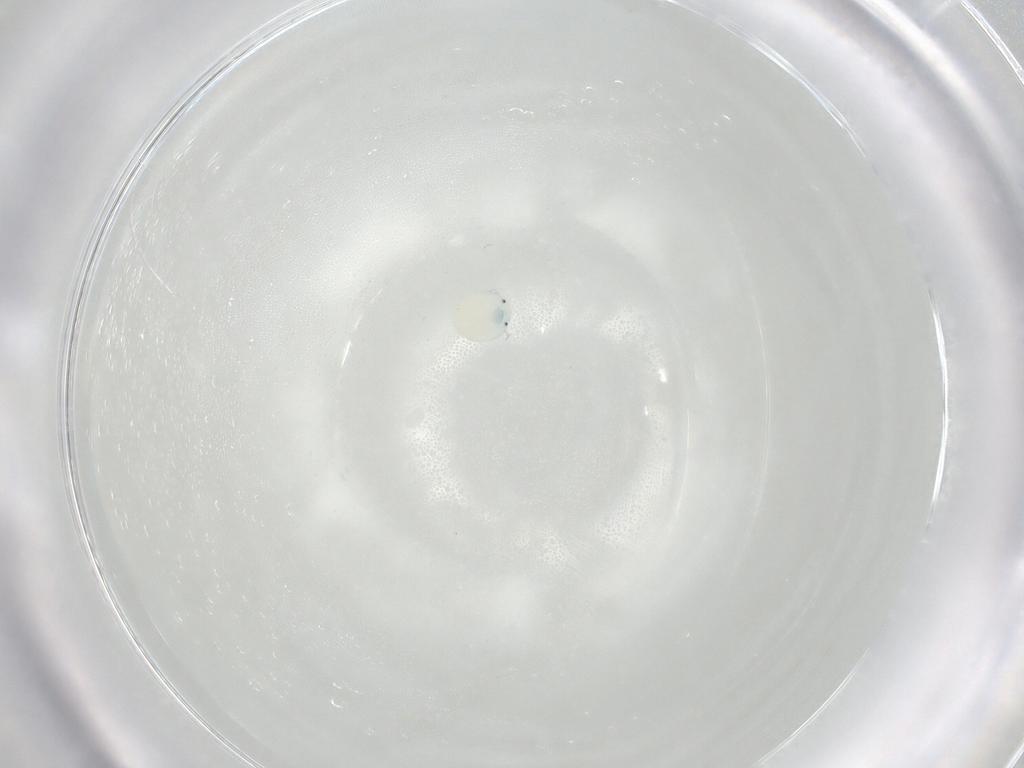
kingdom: Animalia
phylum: Arthropoda
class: Arachnida
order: Trombidiformes
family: Arrenuridae
